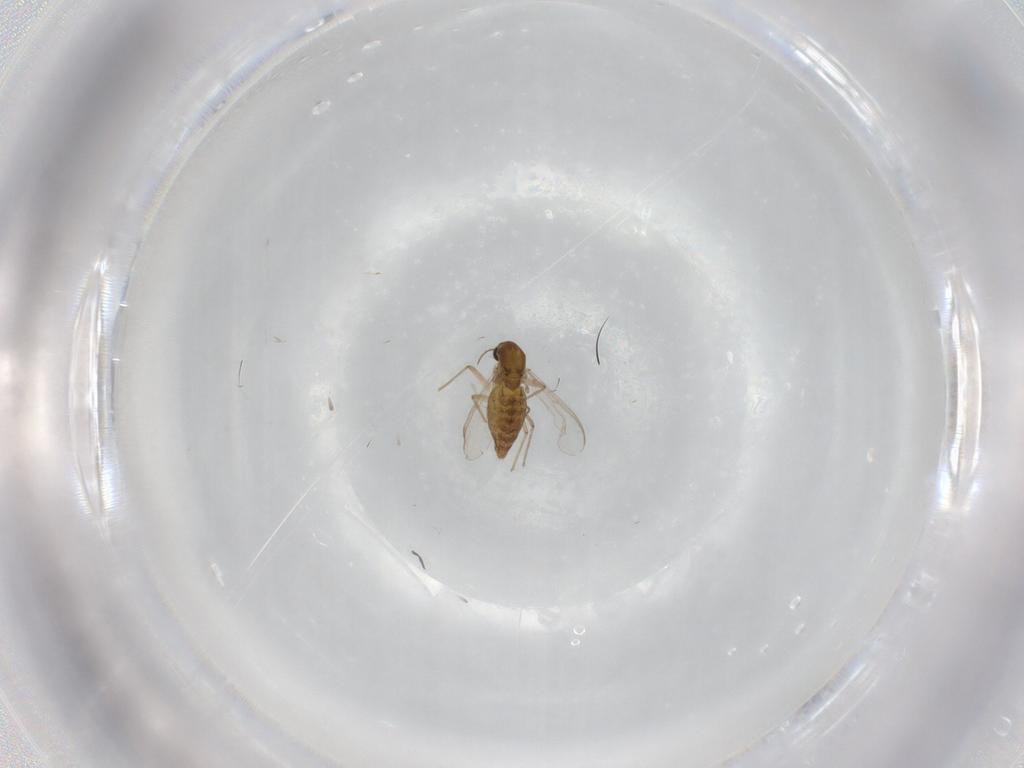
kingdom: Animalia
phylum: Arthropoda
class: Insecta
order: Diptera
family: Chironomidae
